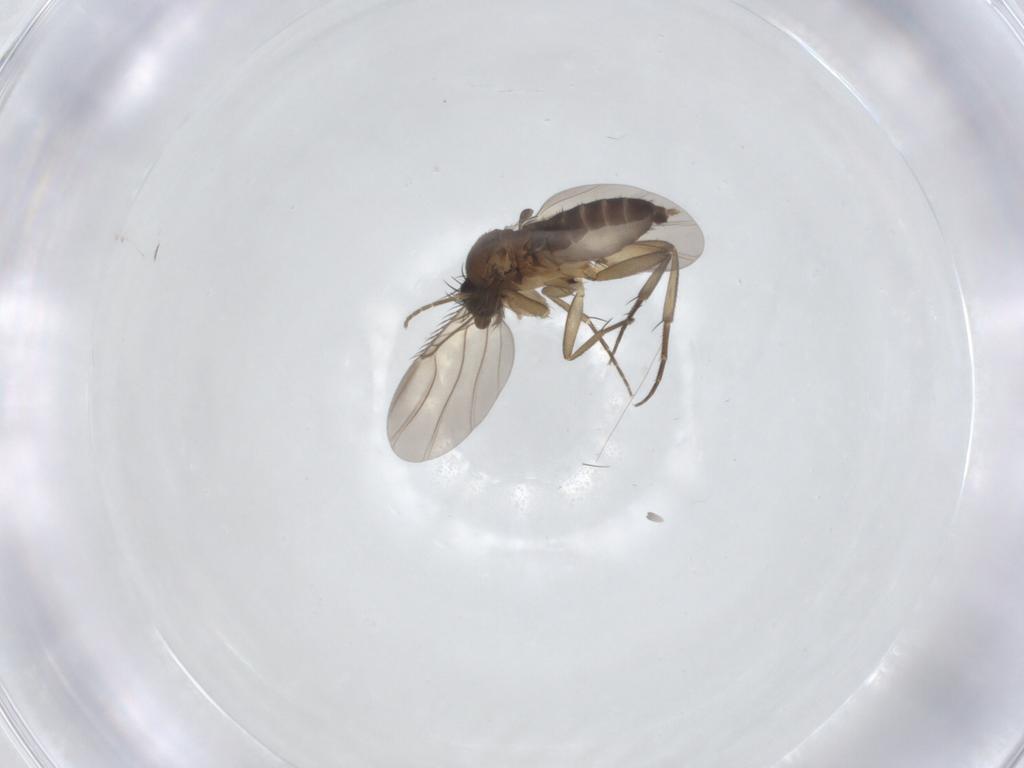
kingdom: Animalia
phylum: Arthropoda
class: Insecta
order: Diptera
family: Phoridae
